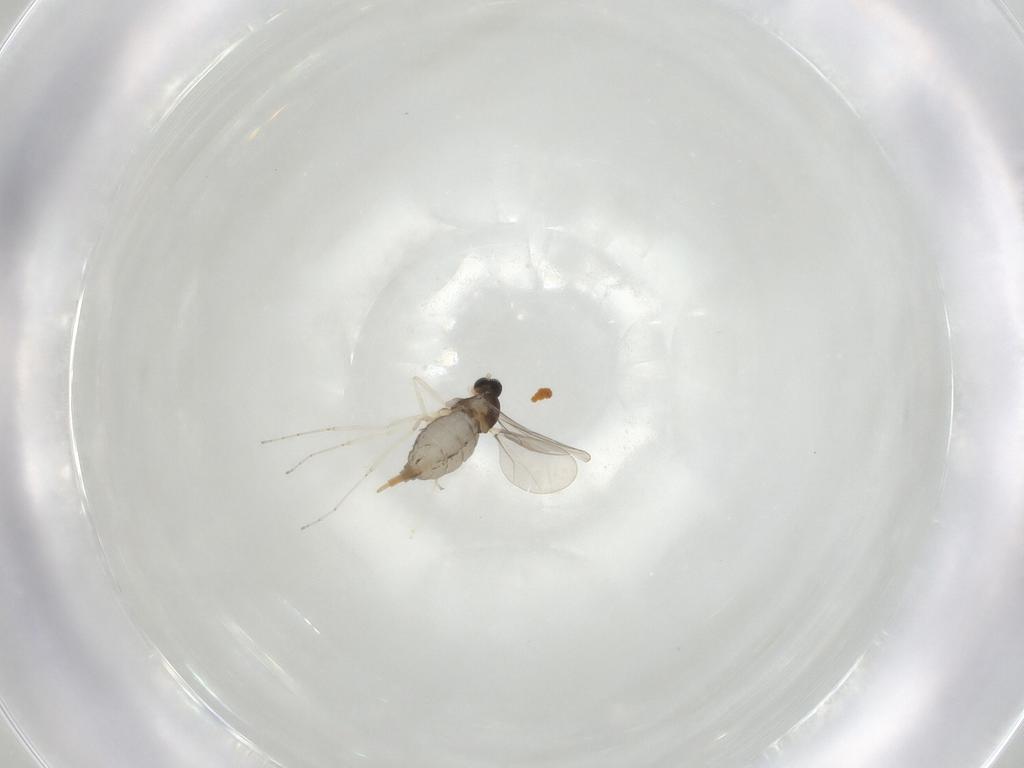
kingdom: Animalia
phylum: Arthropoda
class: Insecta
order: Diptera
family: Cecidomyiidae
